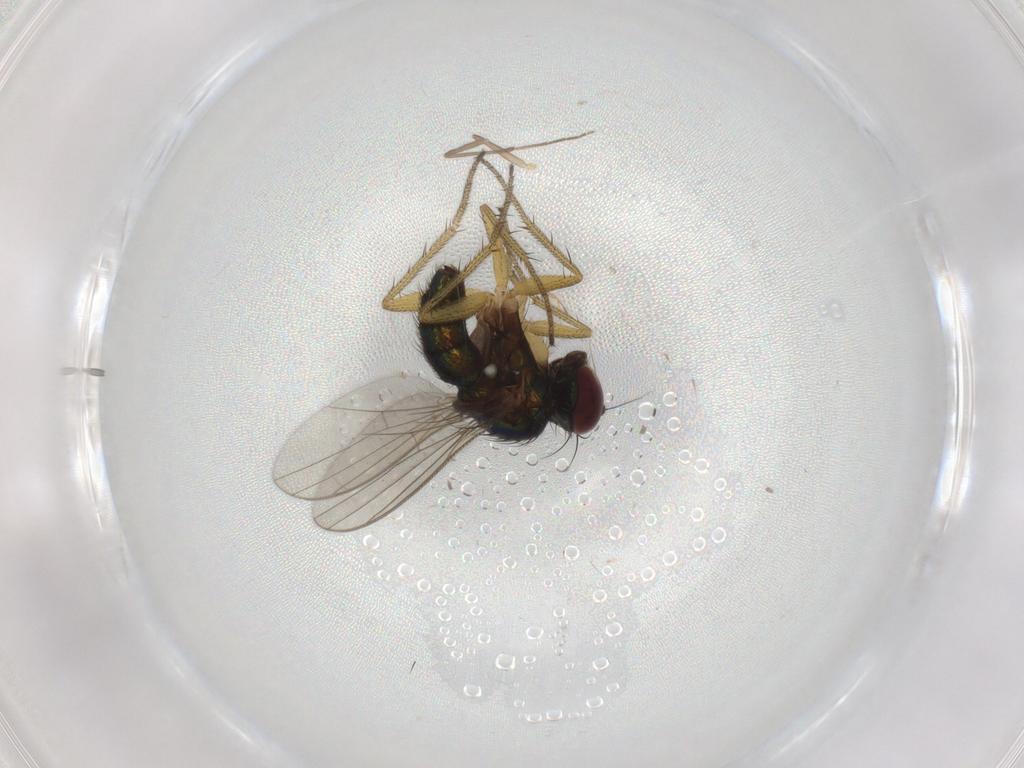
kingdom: Animalia
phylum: Arthropoda
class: Insecta
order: Diptera
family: Chironomidae
